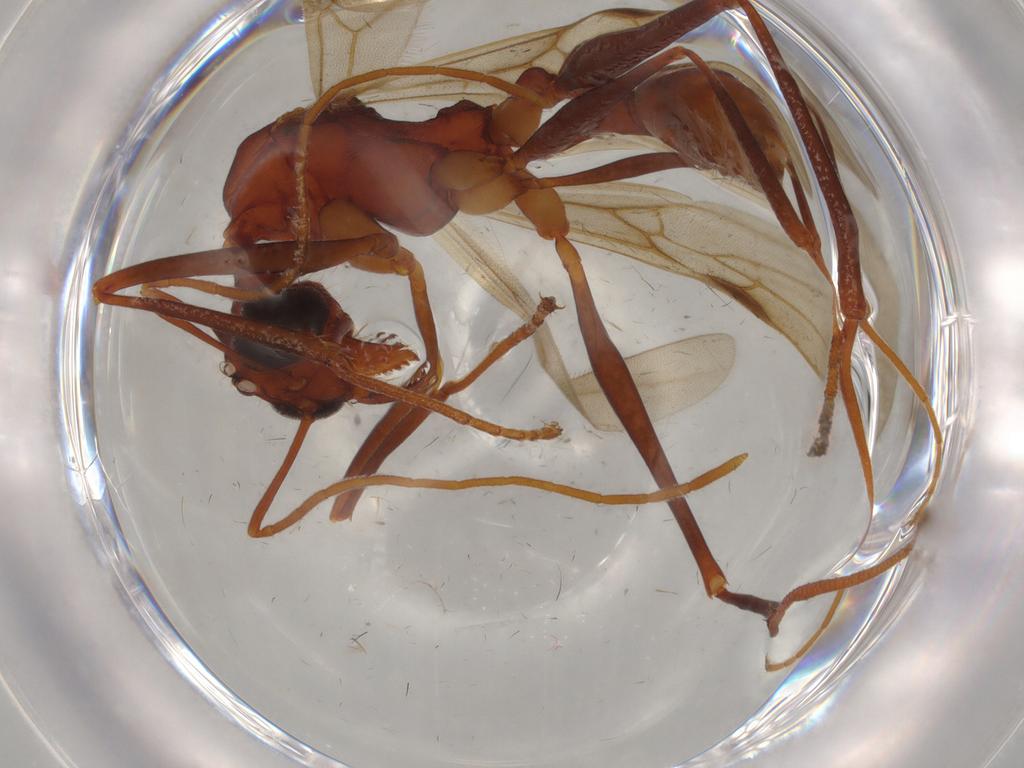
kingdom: Animalia
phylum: Arthropoda
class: Insecta
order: Hymenoptera
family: Formicidae
